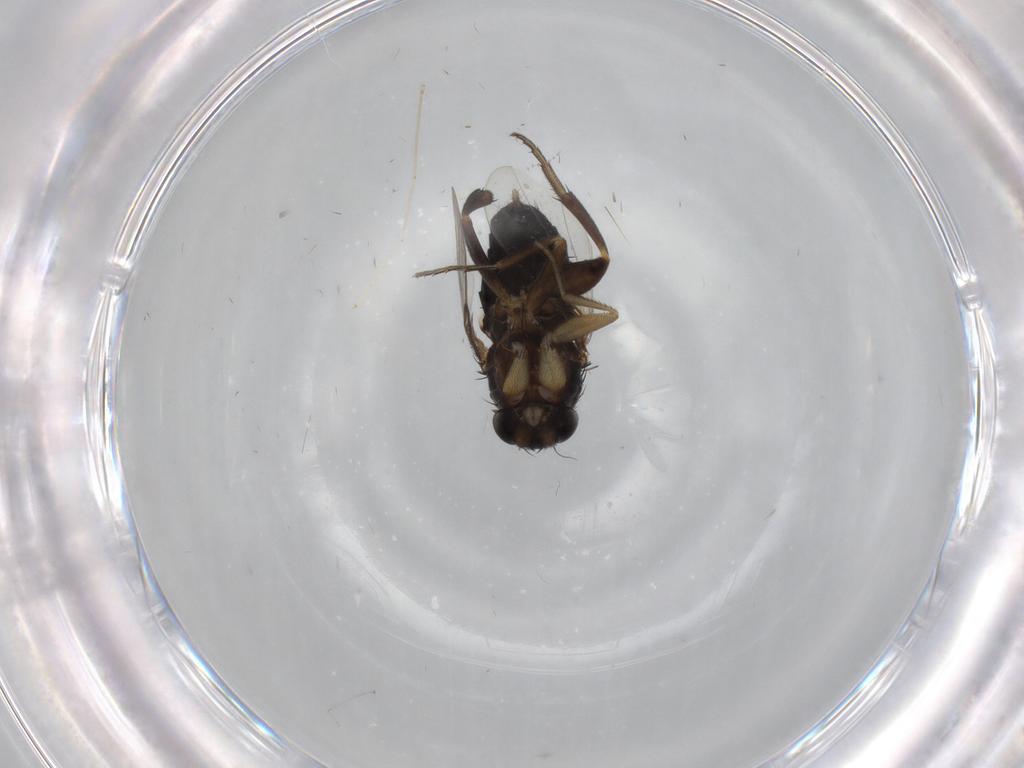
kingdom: Animalia
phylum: Arthropoda
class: Insecta
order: Diptera
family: Phoridae
